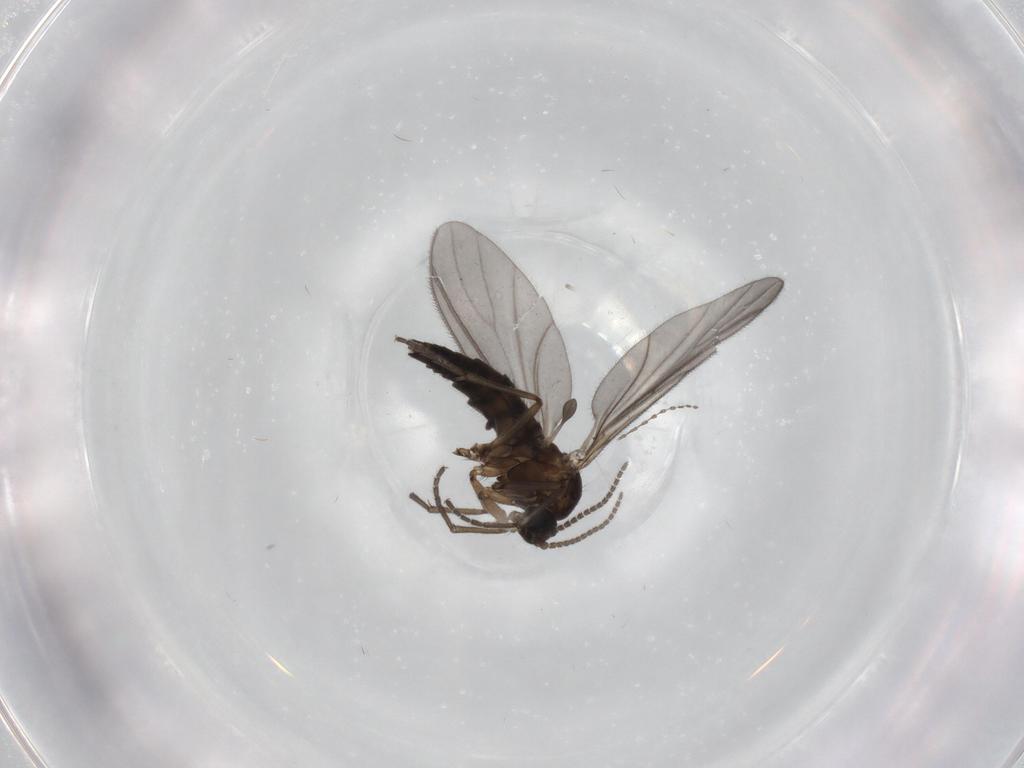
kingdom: Animalia
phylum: Arthropoda
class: Insecta
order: Diptera
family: Sciaridae
